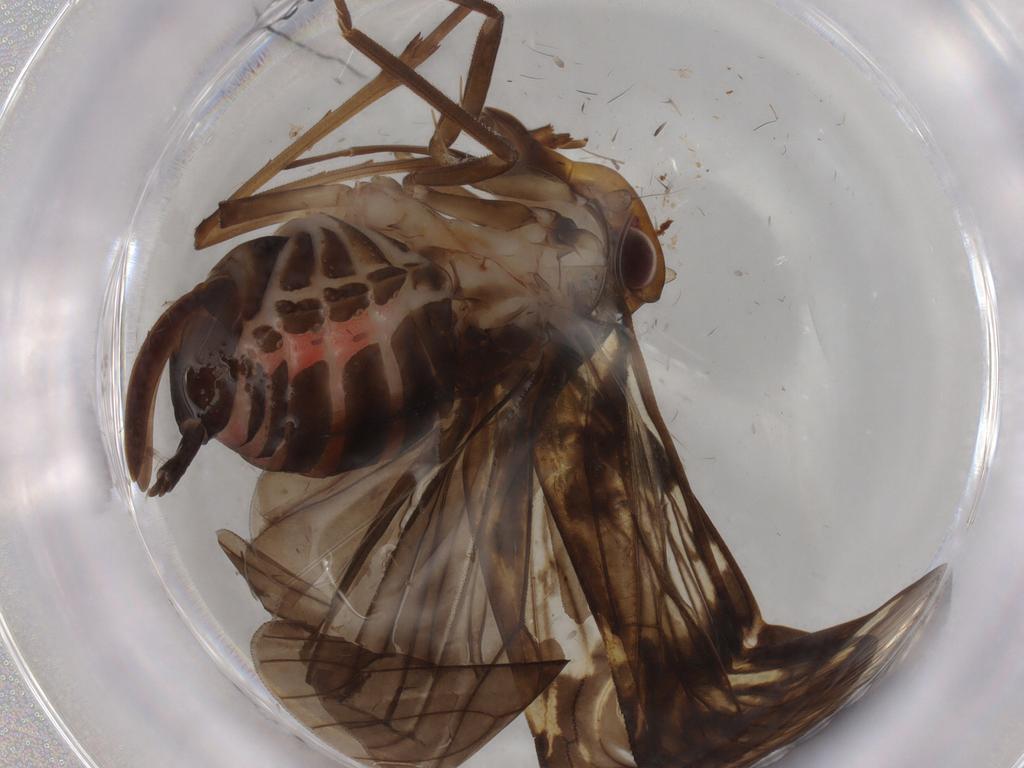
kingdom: Animalia
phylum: Arthropoda
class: Insecta
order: Hemiptera
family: Cixiidae
